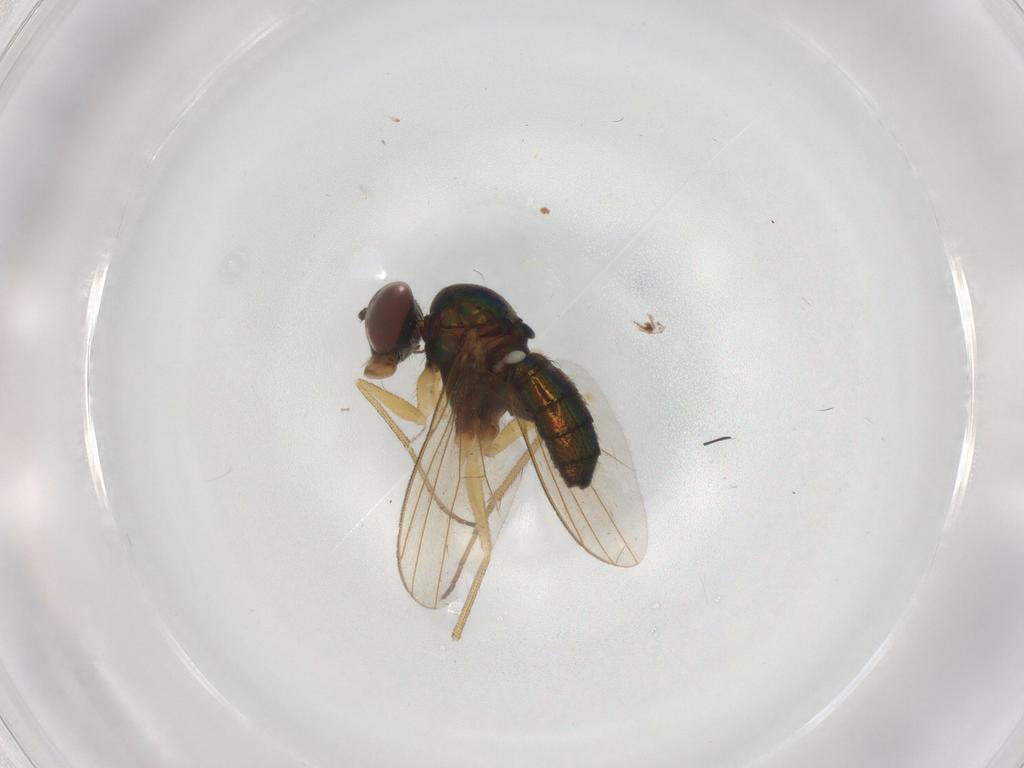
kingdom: Animalia
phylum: Arthropoda
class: Insecta
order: Diptera
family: Dolichopodidae
